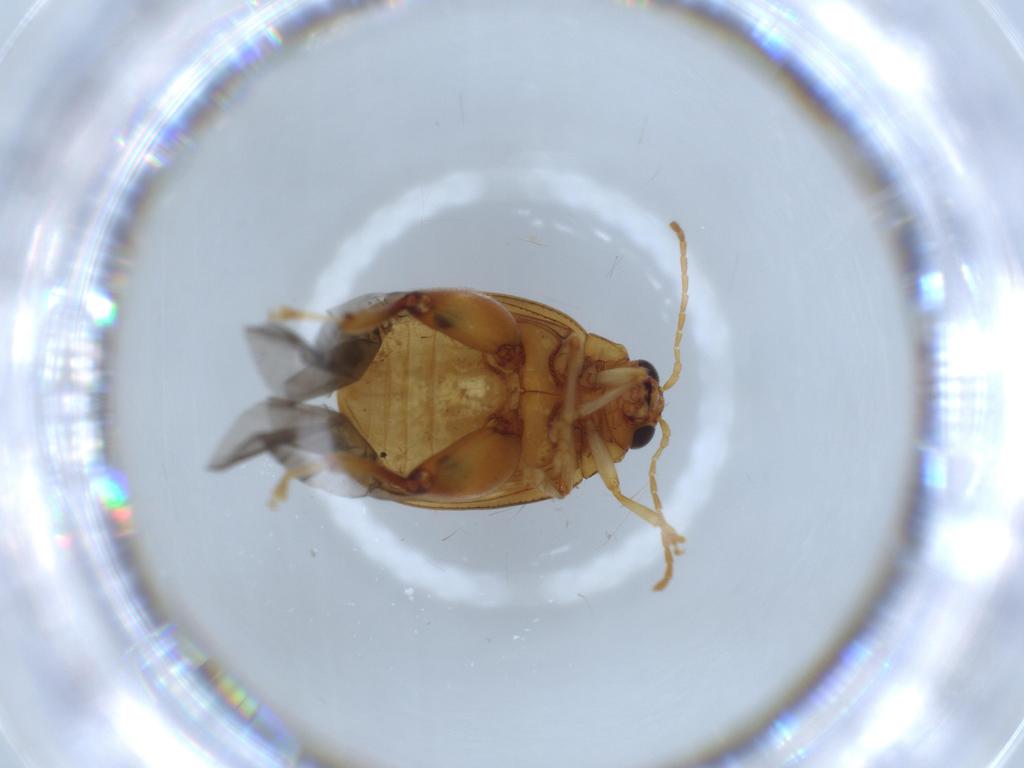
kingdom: Animalia
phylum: Arthropoda
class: Insecta
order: Coleoptera
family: Chrysomelidae
